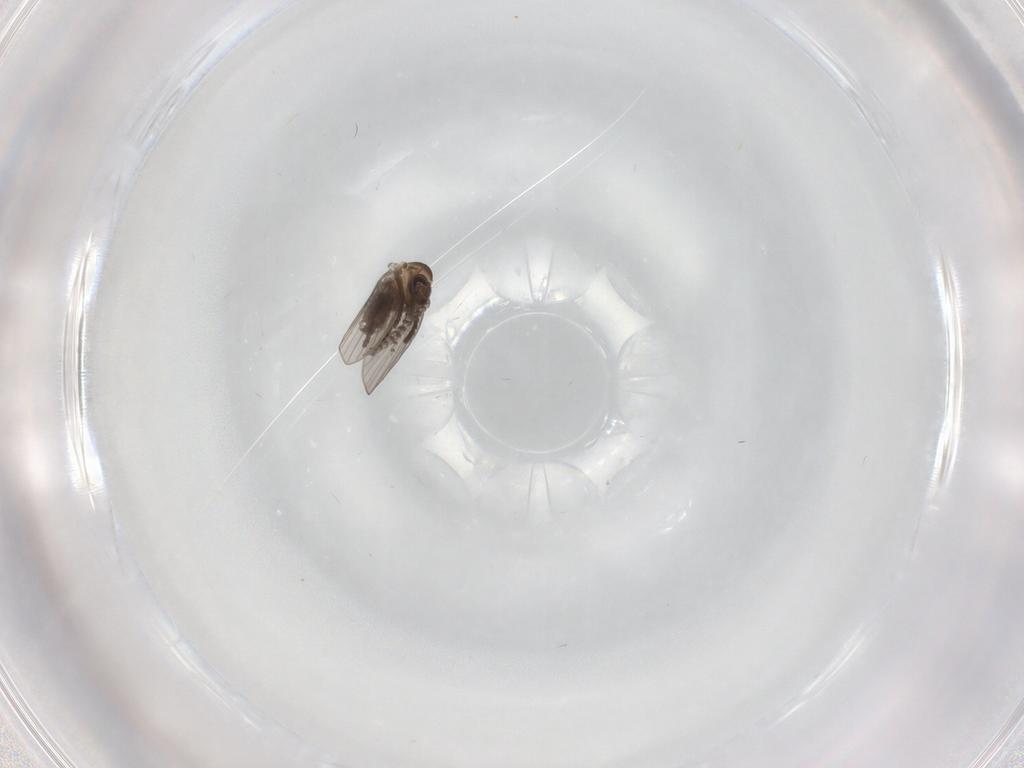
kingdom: Animalia
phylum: Arthropoda
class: Insecta
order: Diptera
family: Psychodidae
